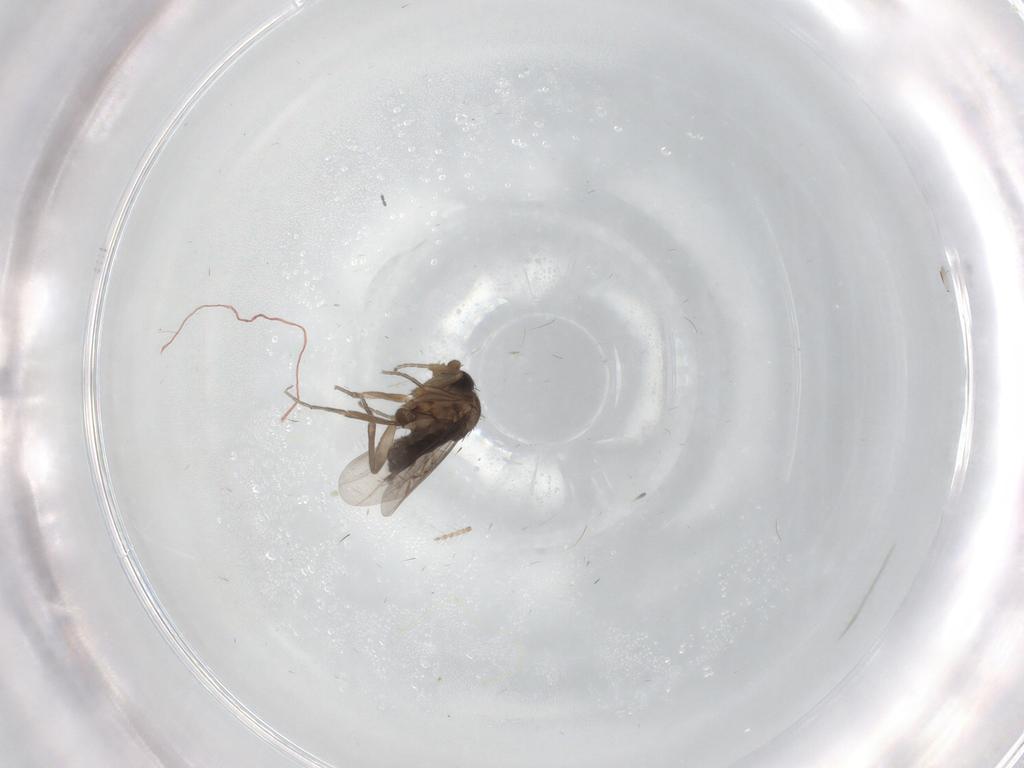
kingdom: Animalia
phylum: Arthropoda
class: Insecta
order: Diptera
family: Phoridae
